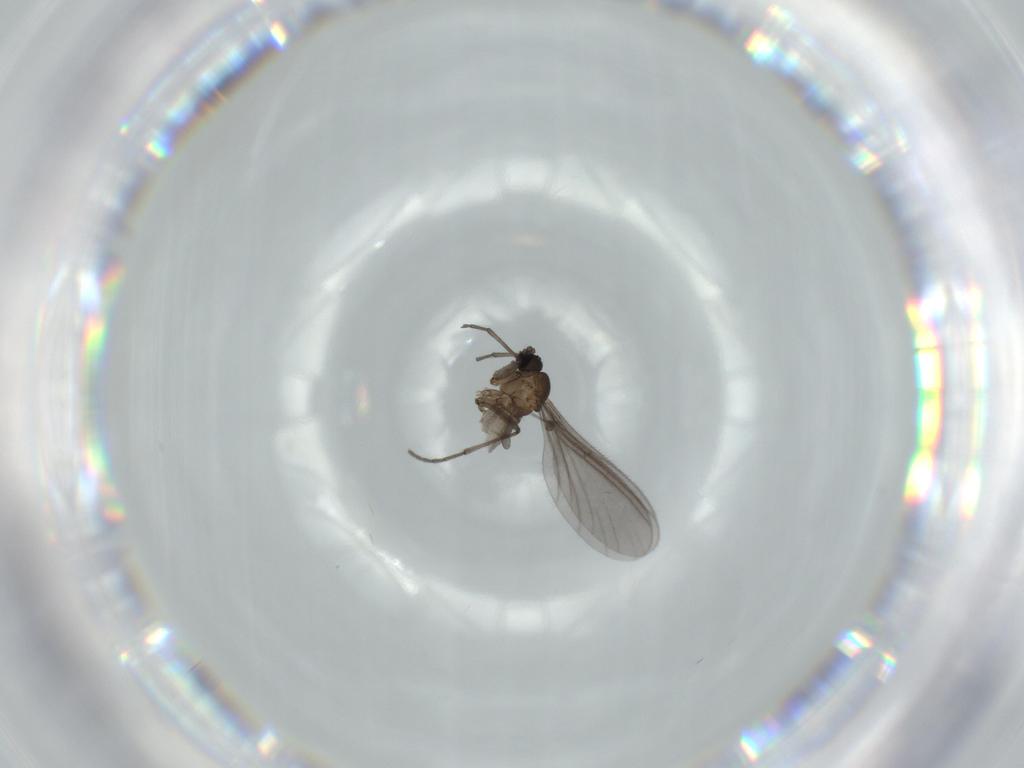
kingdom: Animalia
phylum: Arthropoda
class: Insecta
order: Diptera
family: Sciaridae
